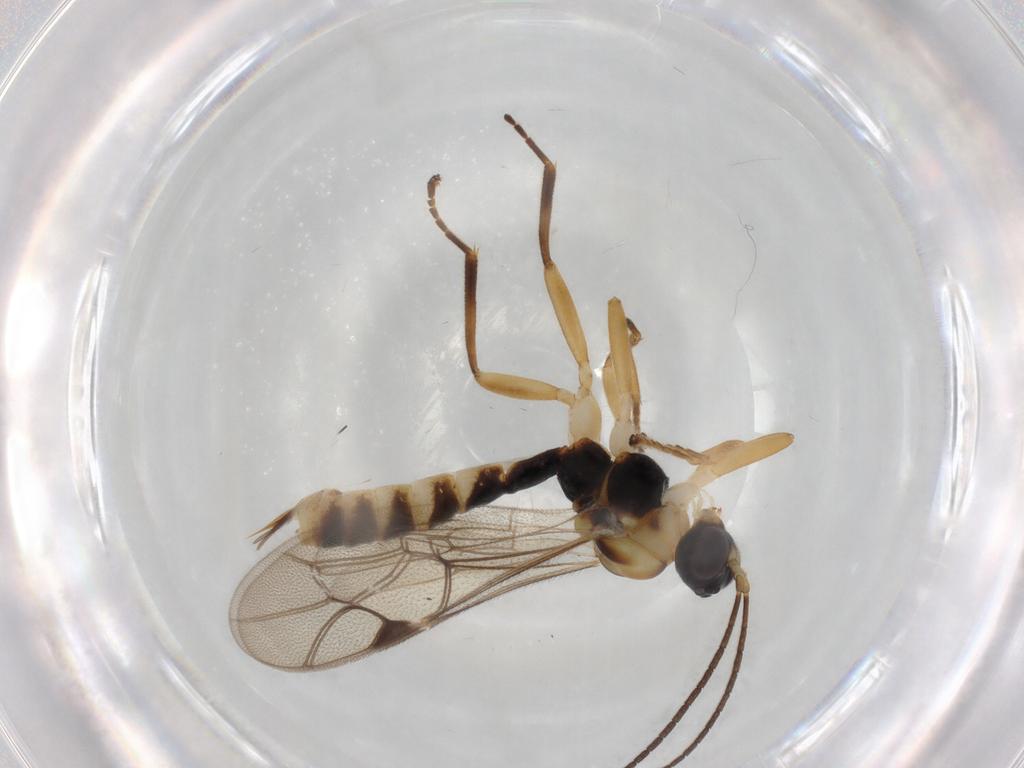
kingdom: Animalia
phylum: Arthropoda
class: Insecta
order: Hymenoptera
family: Ichneumonidae
